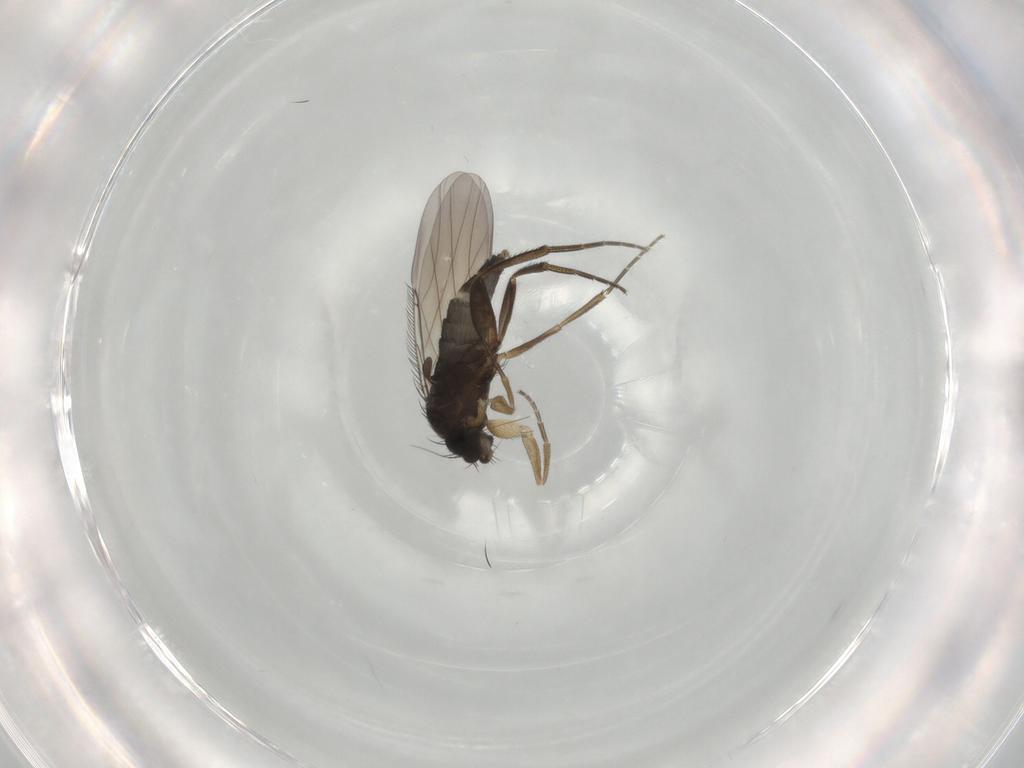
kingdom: Animalia
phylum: Arthropoda
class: Insecta
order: Diptera
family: Phoridae
